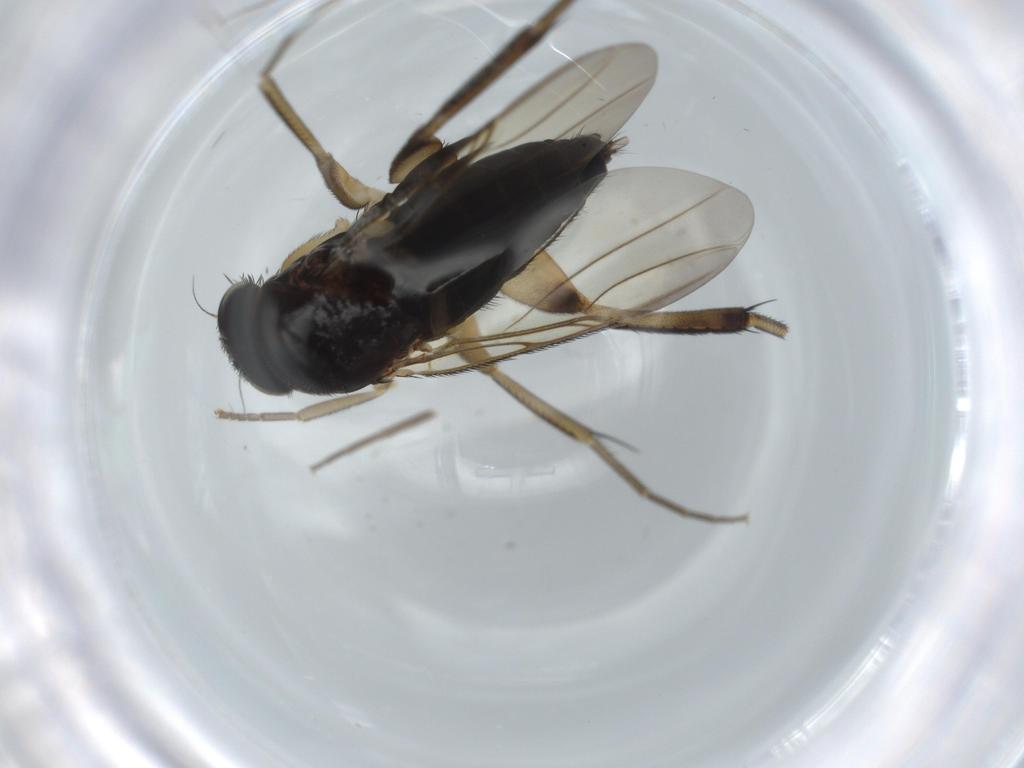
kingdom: Animalia
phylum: Arthropoda
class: Insecta
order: Diptera
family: Phoridae
